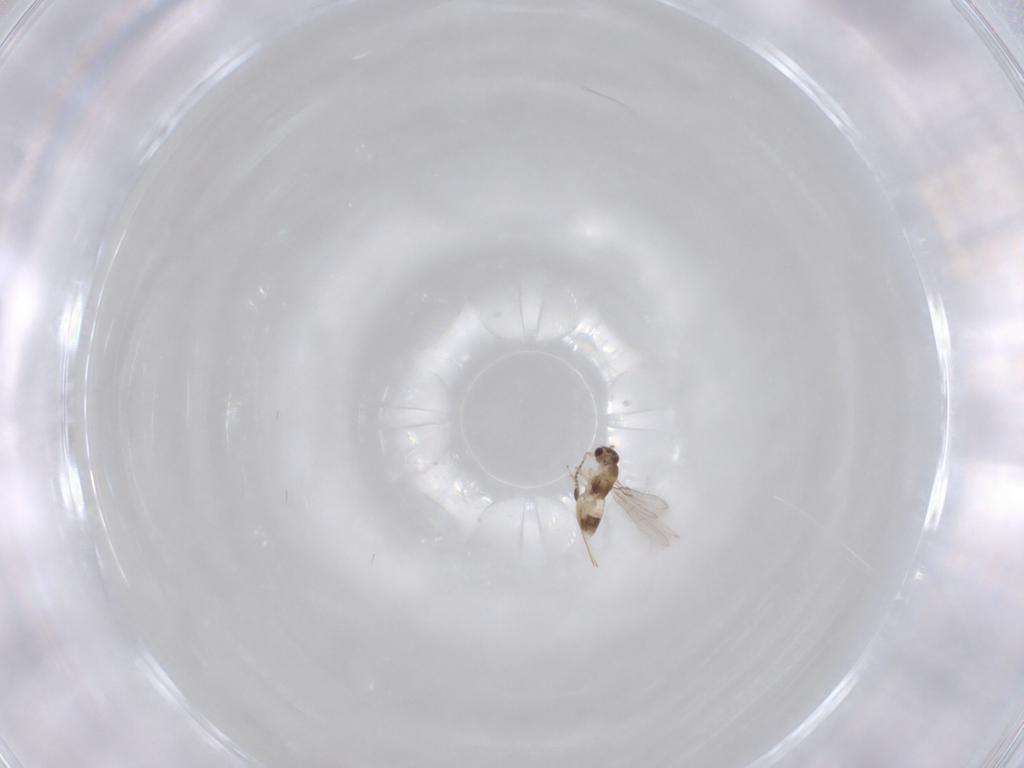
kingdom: Animalia
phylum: Arthropoda
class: Insecta
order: Hymenoptera
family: Mymaridae
